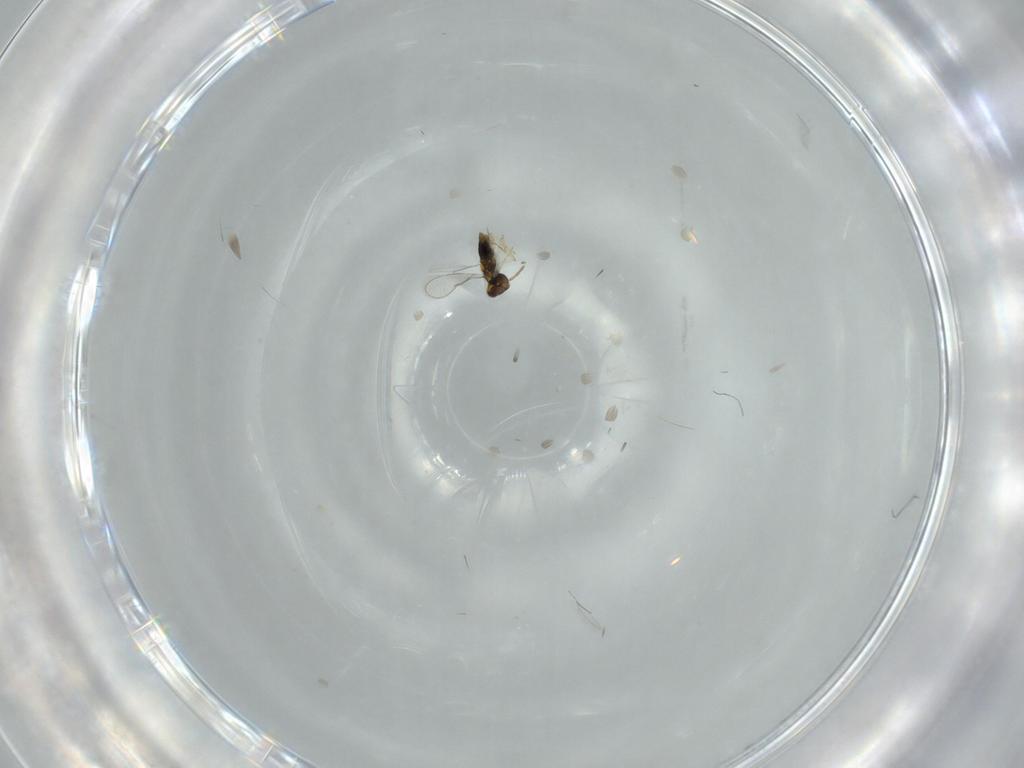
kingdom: Animalia
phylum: Arthropoda
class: Insecta
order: Hymenoptera
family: Aphelinidae
